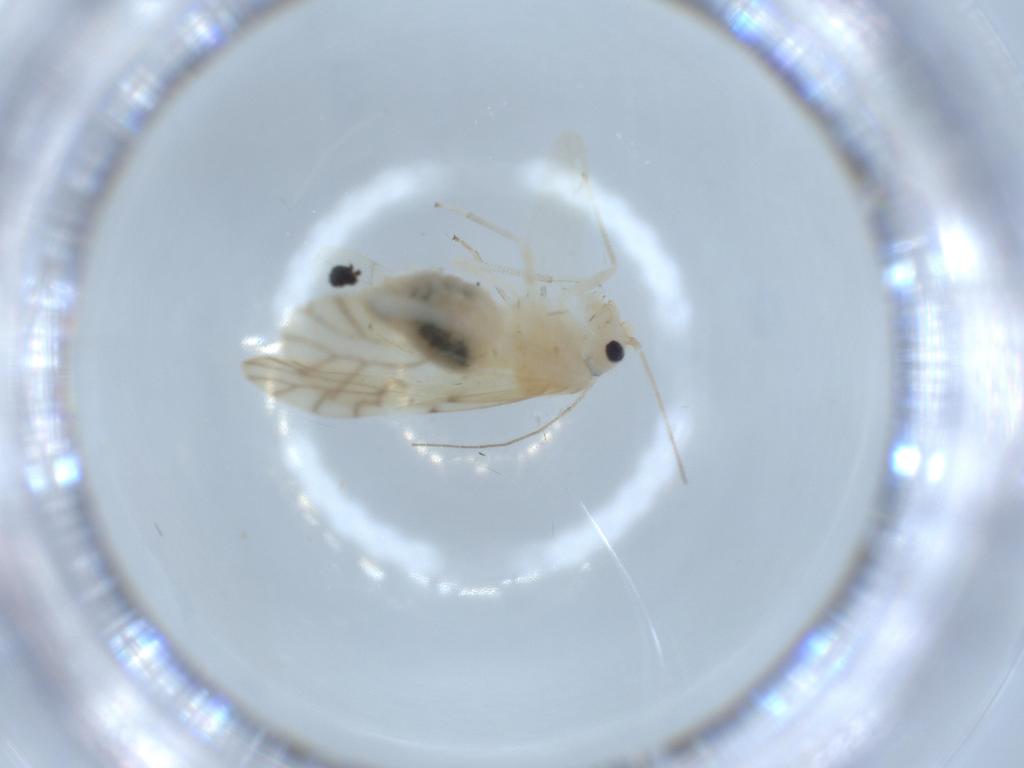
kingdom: Animalia
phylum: Arthropoda
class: Insecta
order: Psocodea
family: Caeciliusidae
